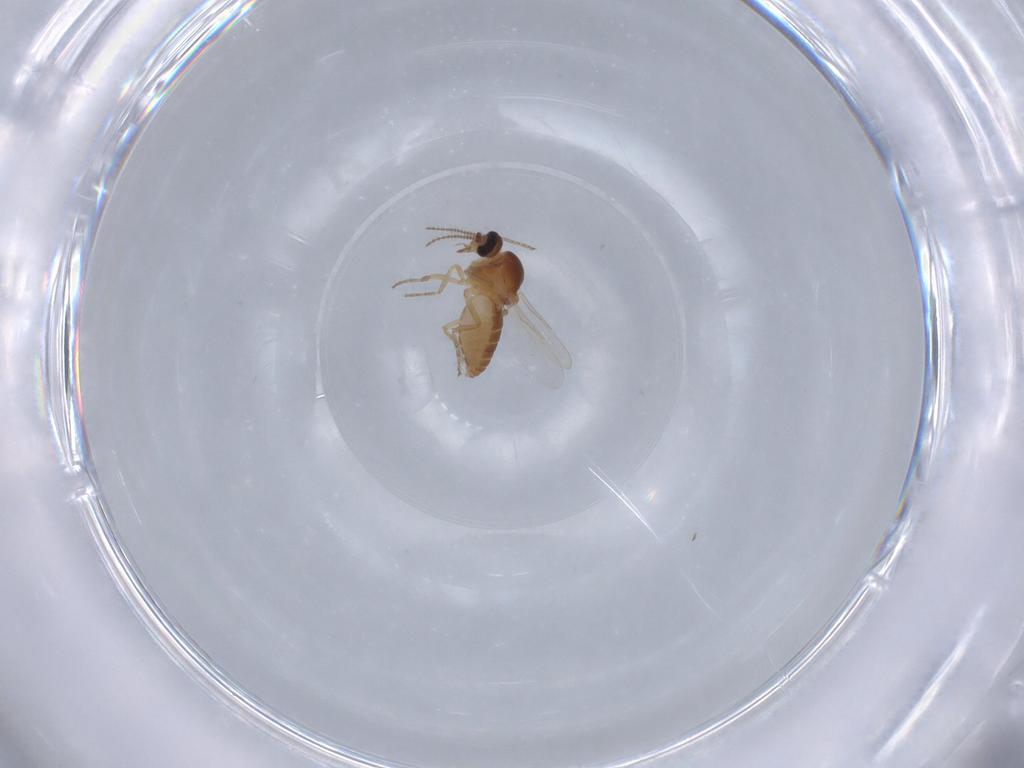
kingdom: Animalia
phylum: Arthropoda
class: Insecta
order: Diptera
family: Ceratopogonidae
